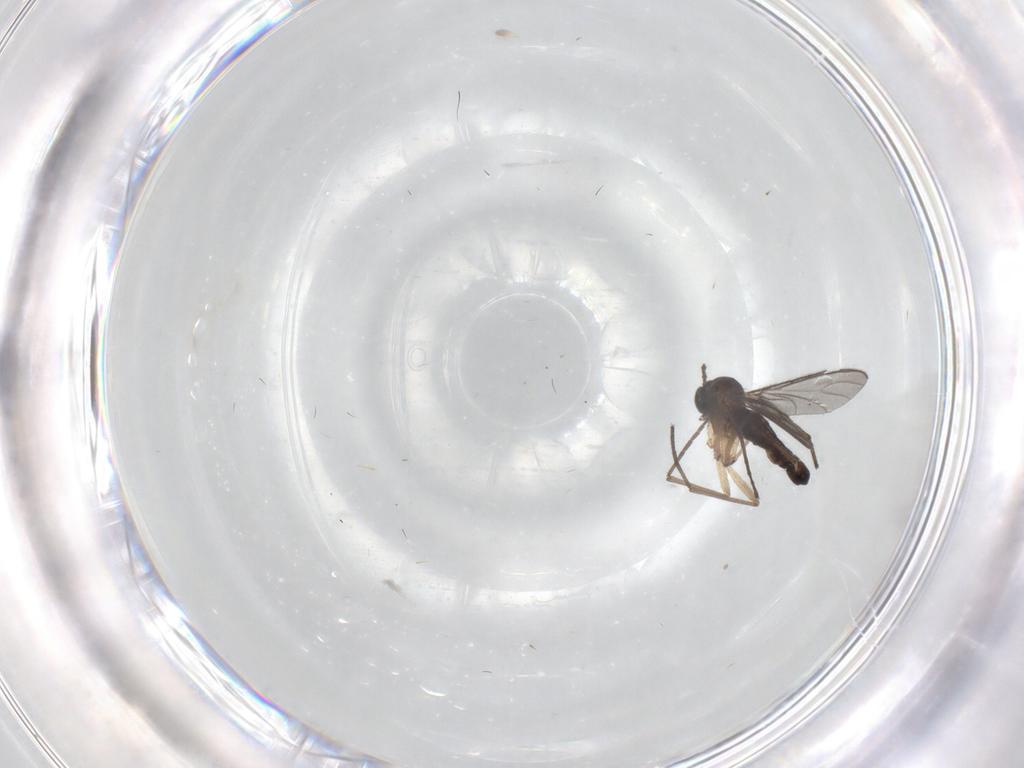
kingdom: Animalia
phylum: Arthropoda
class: Insecta
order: Diptera
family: Sciaridae
